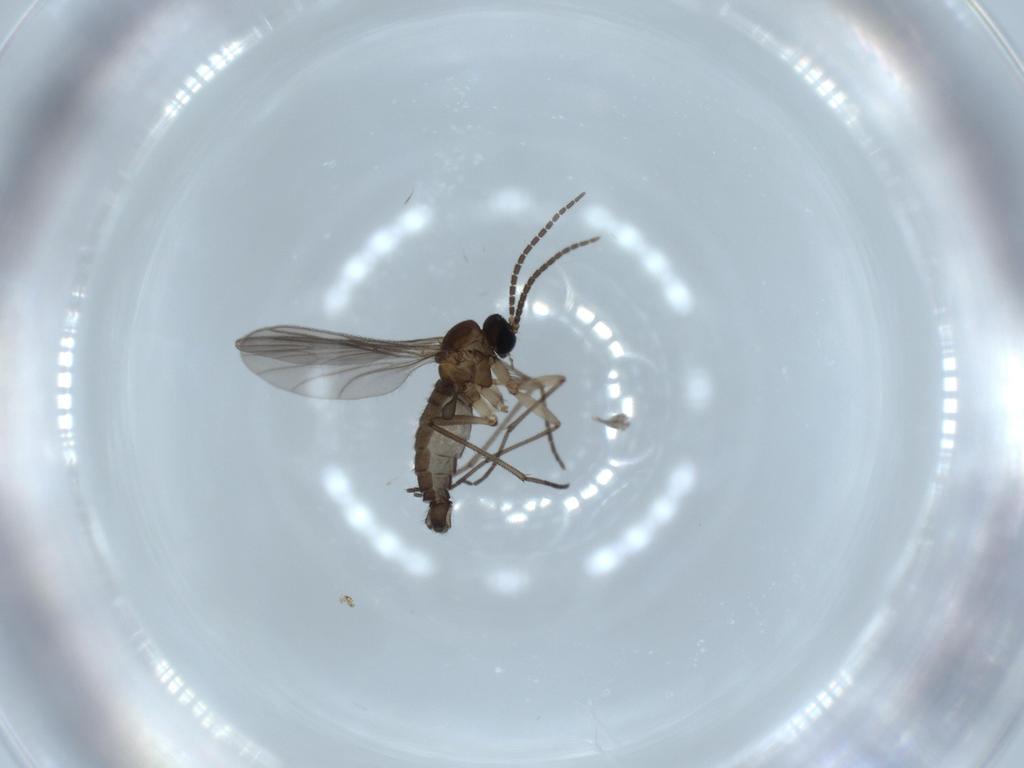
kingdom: Animalia
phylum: Arthropoda
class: Insecta
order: Diptera
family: Sciaridae
